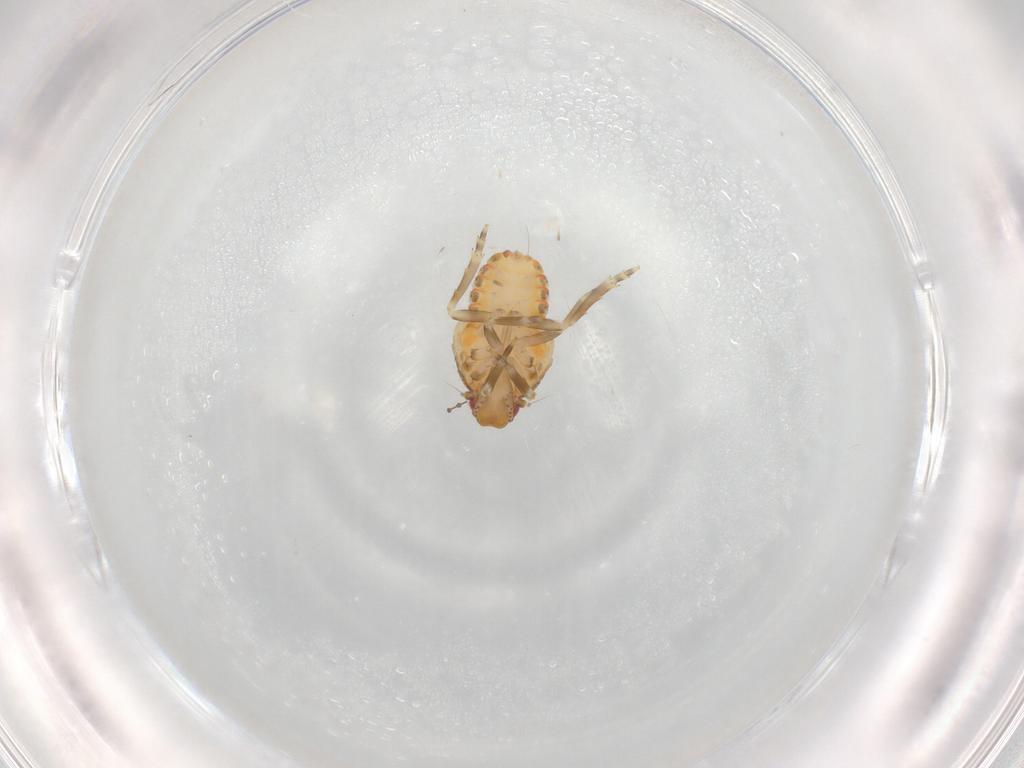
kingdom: Animalia
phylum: Arthropoda
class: Insecta
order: Hemiptera
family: Flatidae
